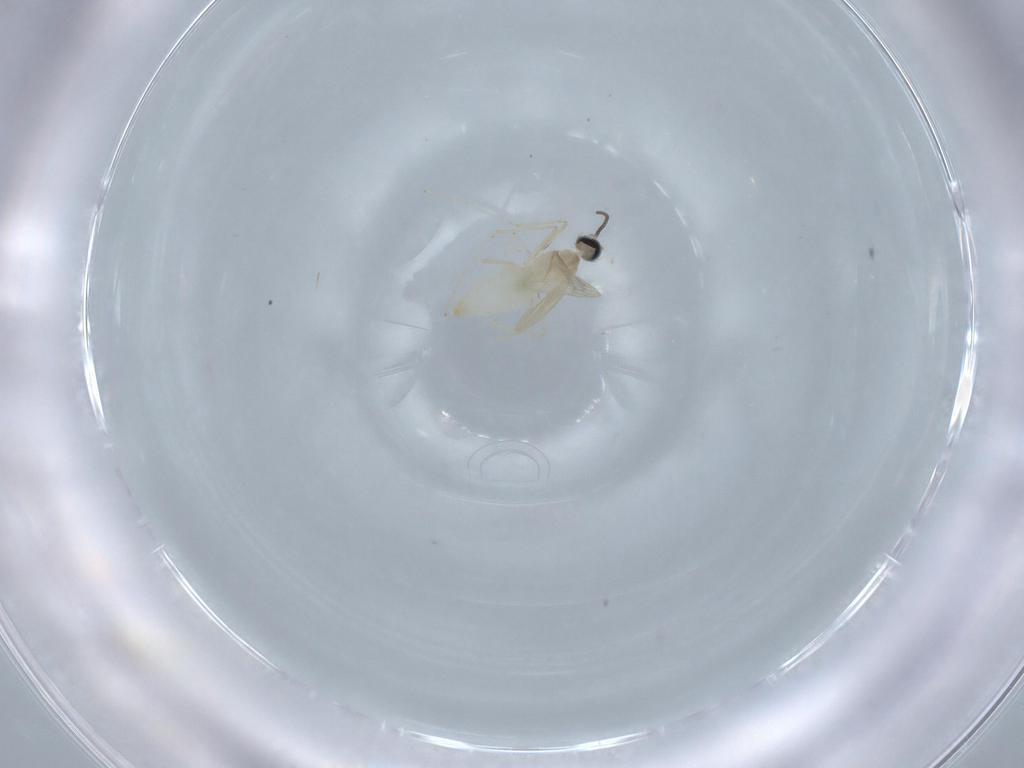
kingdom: Animalia
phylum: Arthropoda
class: Insecta
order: Diptera
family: Cecidomyiidae
